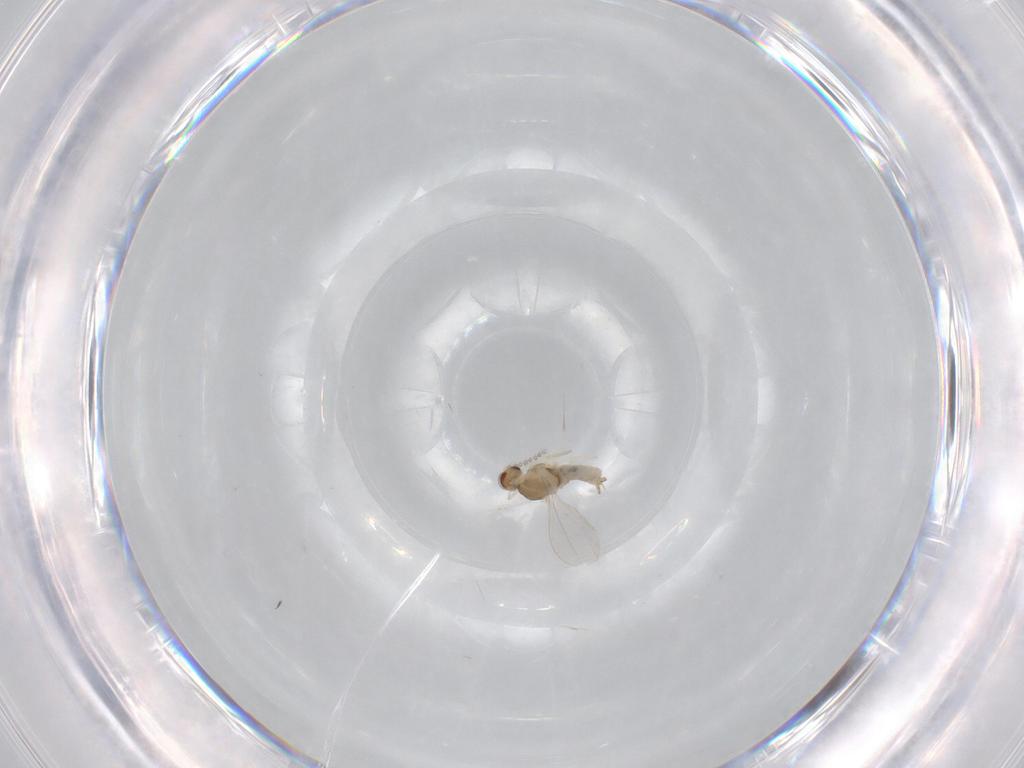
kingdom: Animalia
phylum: Arthropoda
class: Insecta
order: Diptera
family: Cecidomyiidae
